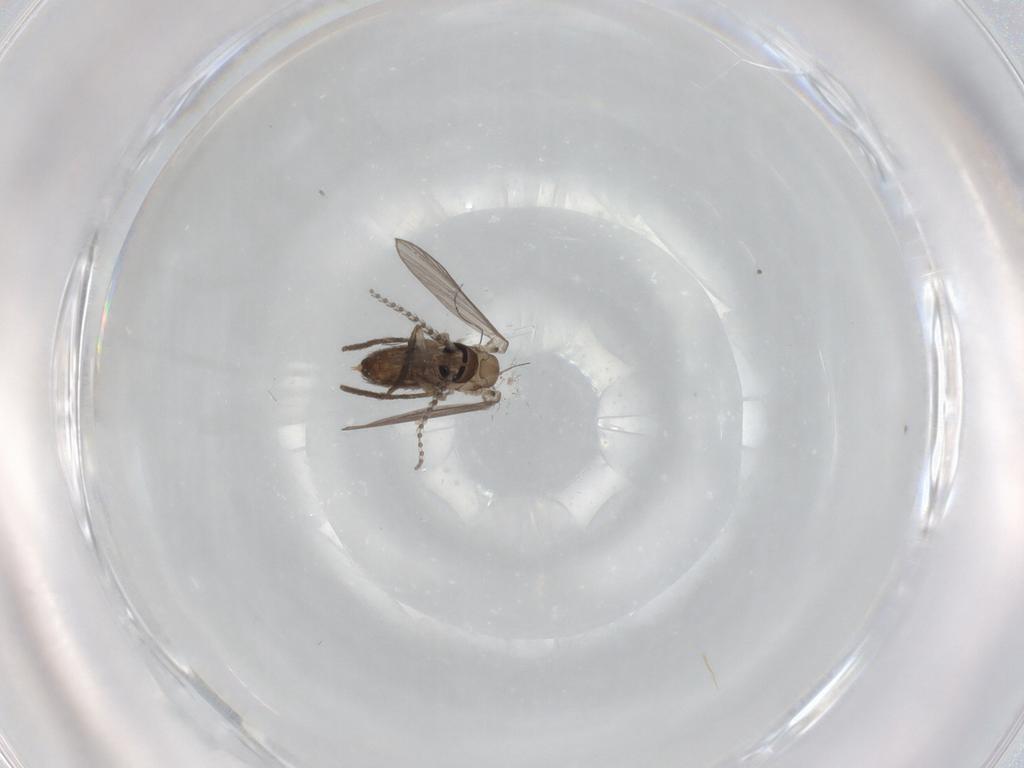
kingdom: Animalia
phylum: Arthropoda
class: Insecta
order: Diptera
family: Psychodidae
